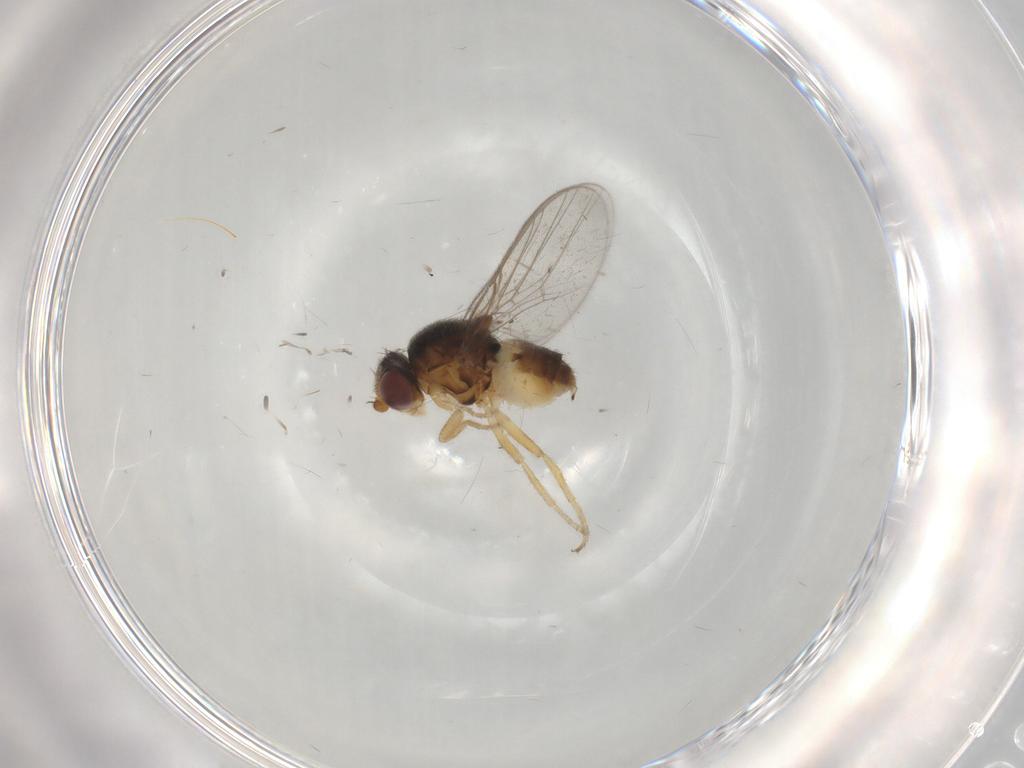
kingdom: Animalia
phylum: Arthropoda
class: Insecta
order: Diptera
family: Chloropidae
